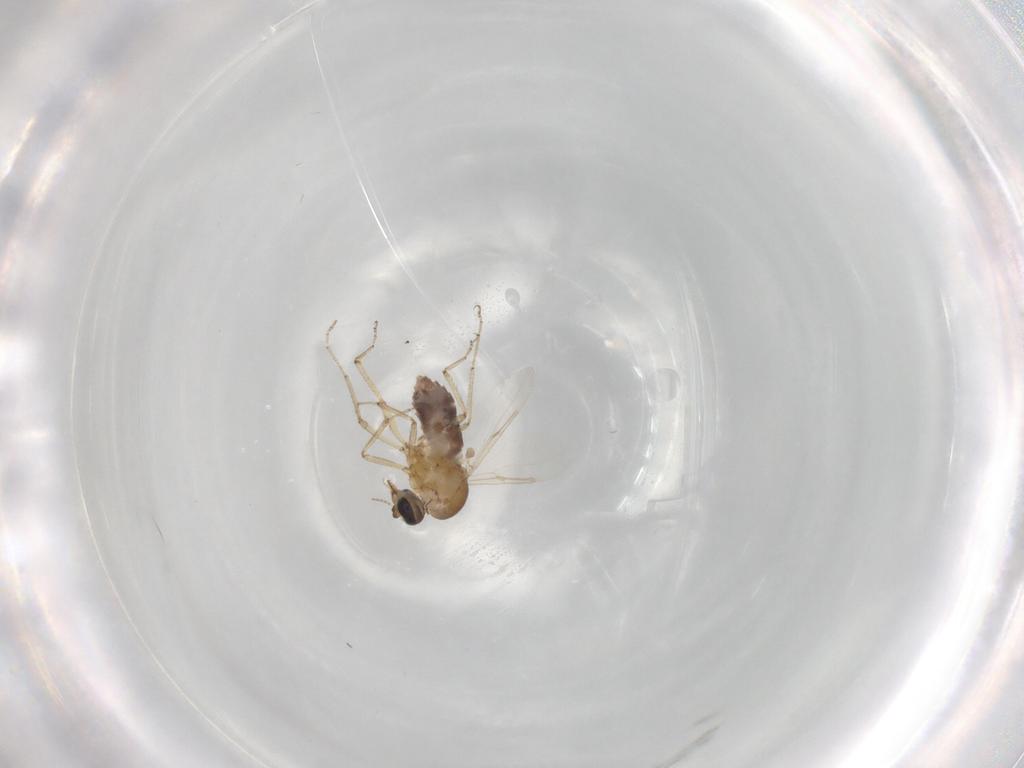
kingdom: Animalia
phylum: Arthropoda
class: Insecta
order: Diptera
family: Ceratopogonidae
